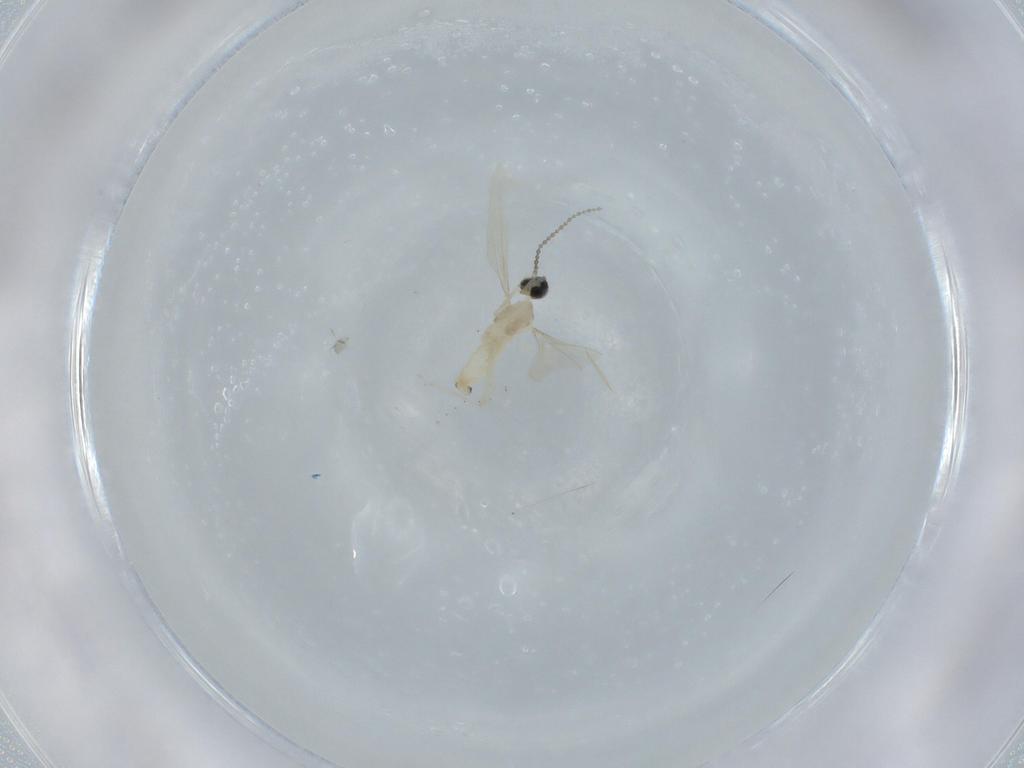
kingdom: Animalia
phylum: Arthropoda
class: Insecta
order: Diptera
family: Cecidomyiidae
